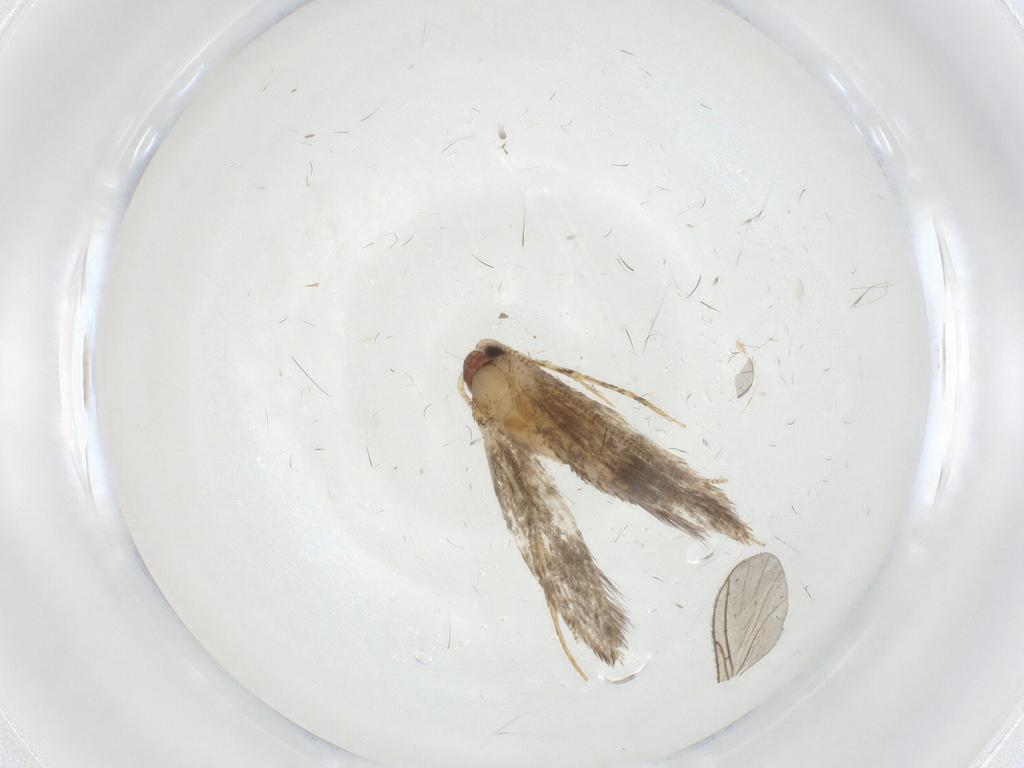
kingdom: Animalia
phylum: Arthropoda
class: Insecta
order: Lepidoptera
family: Tineidae
